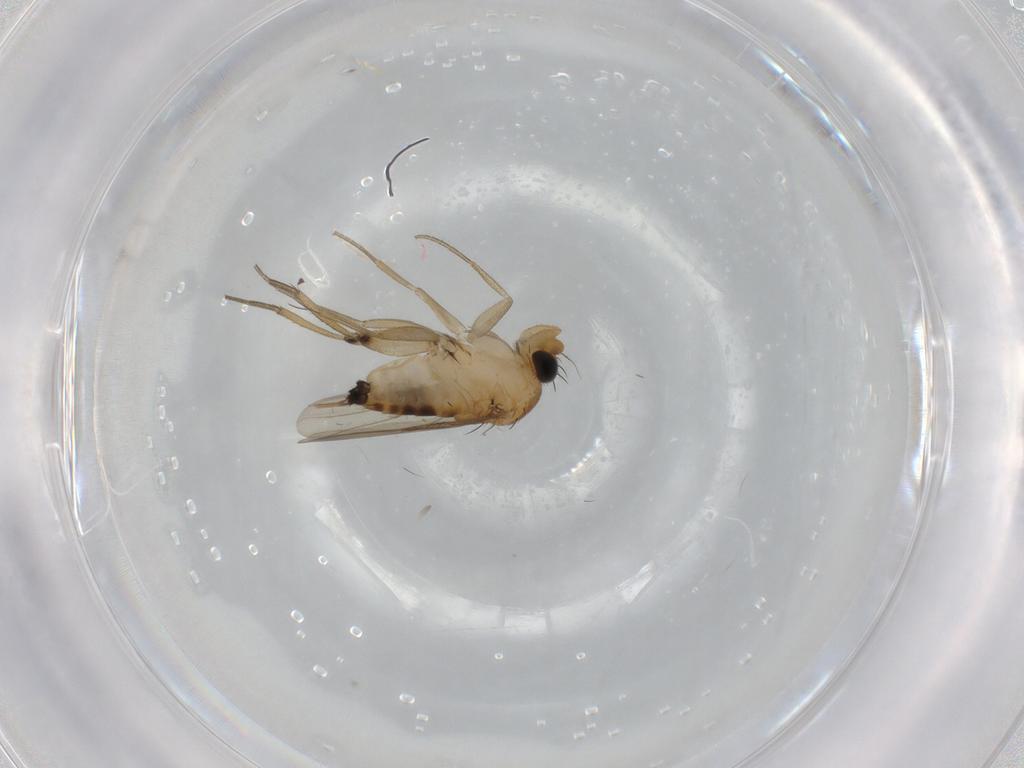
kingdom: Animalia
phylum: Arthropoda
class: Insecta
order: Diptera
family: Phoridae
